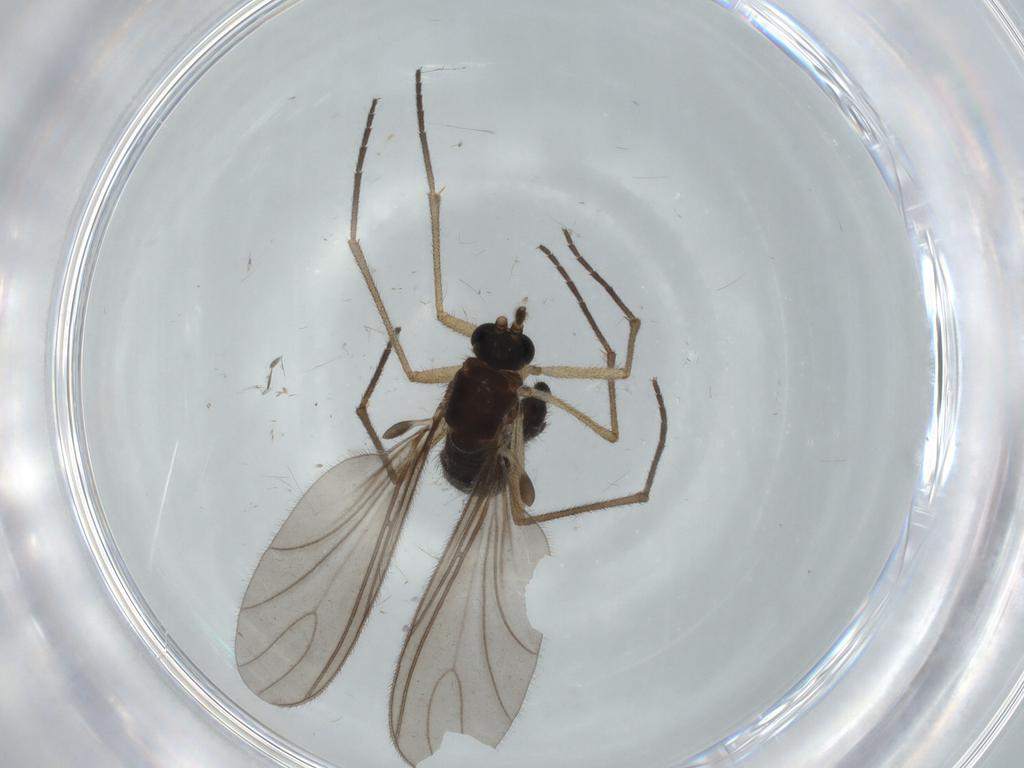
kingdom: Animalia
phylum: Arthropoda
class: Insecta
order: Diptera
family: Sciaridae
